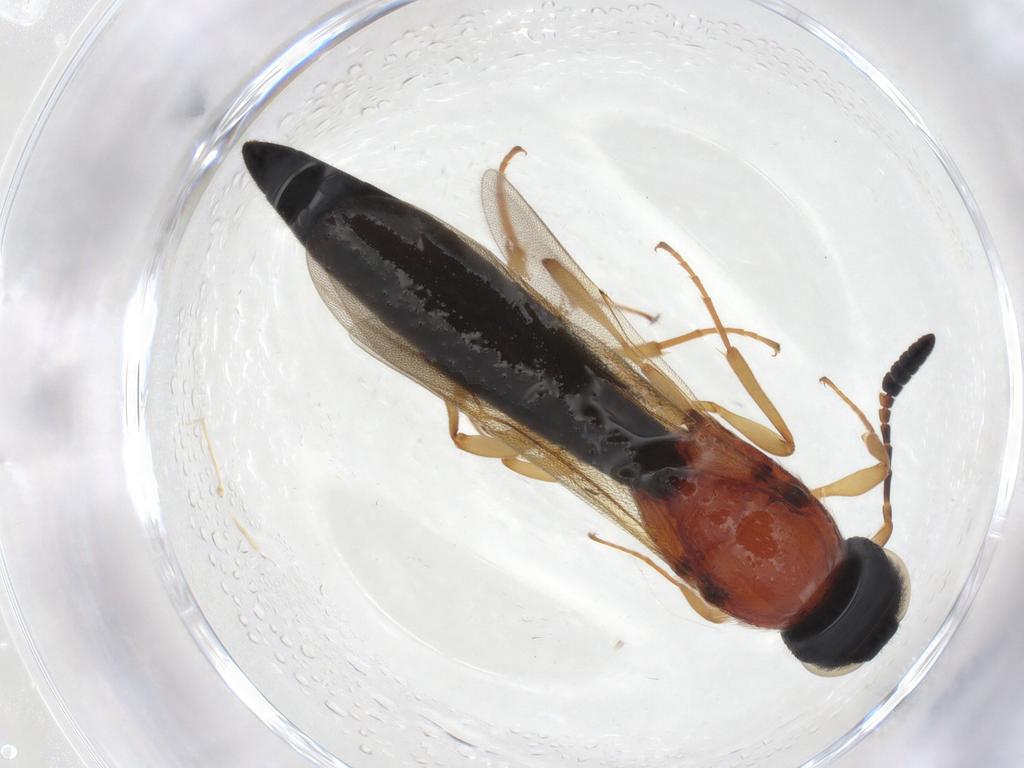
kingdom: Animalia
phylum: Arthropoda
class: Insecta
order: Hymenoptera
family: Scelionidae
